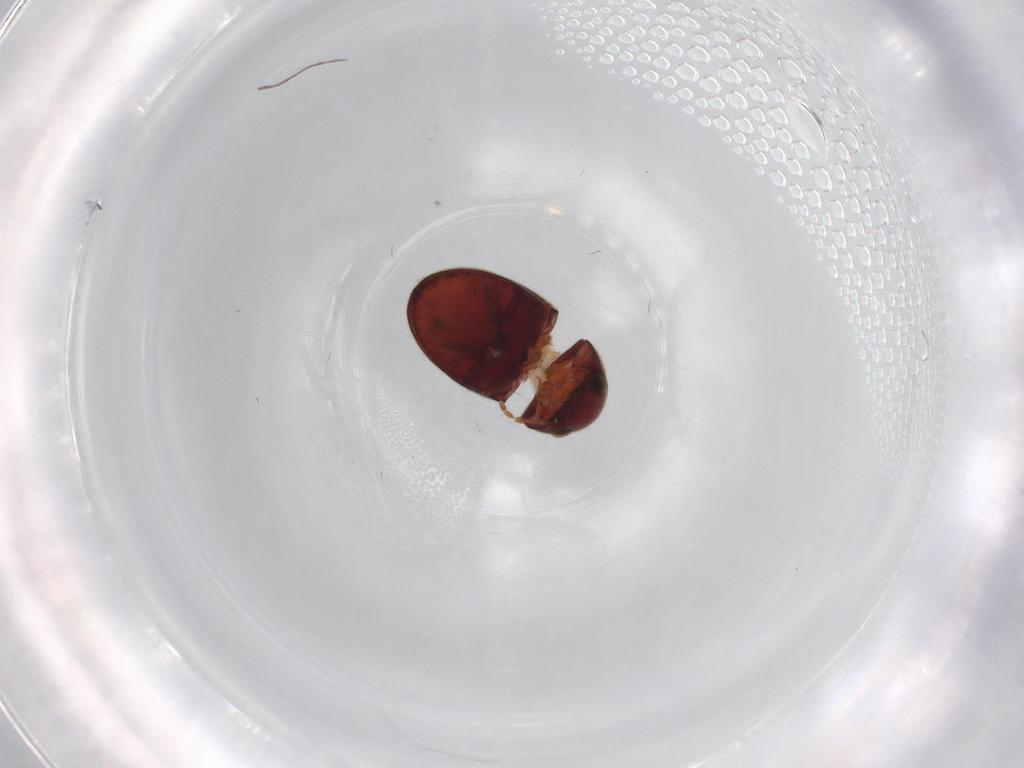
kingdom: Animalia
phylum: Arthropoda
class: Insecta
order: Coleoptera
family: Ptinidae
